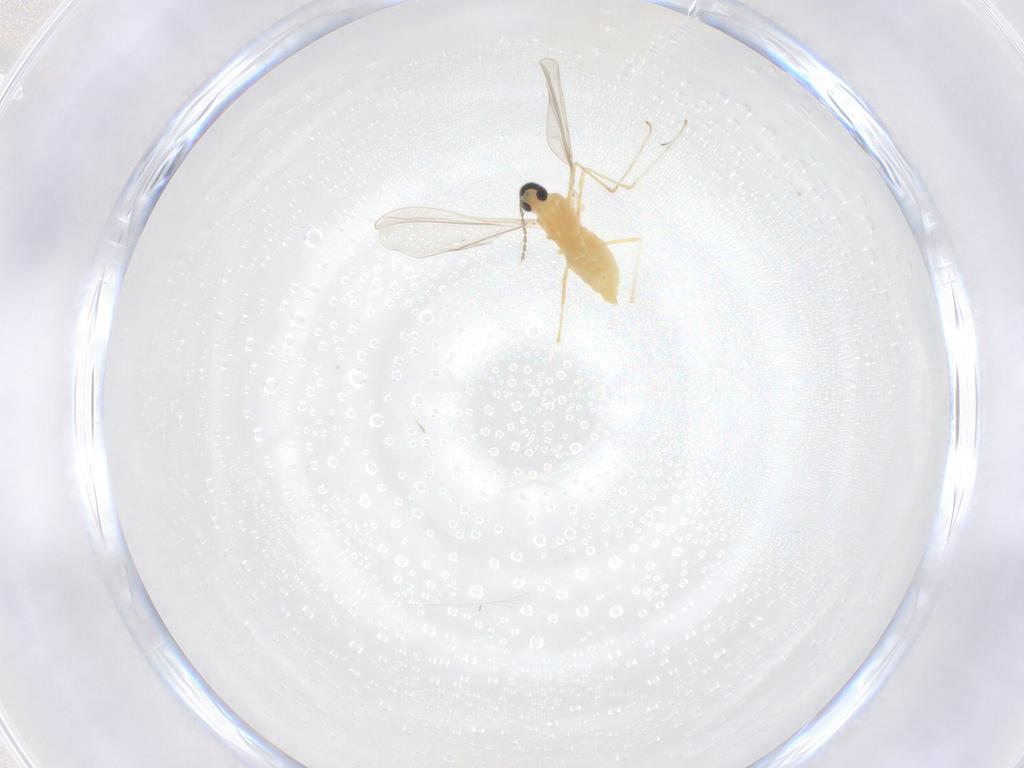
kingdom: Animalia
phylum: Arthropoda
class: Insecta
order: Diptera
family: Cecidomyiidae
